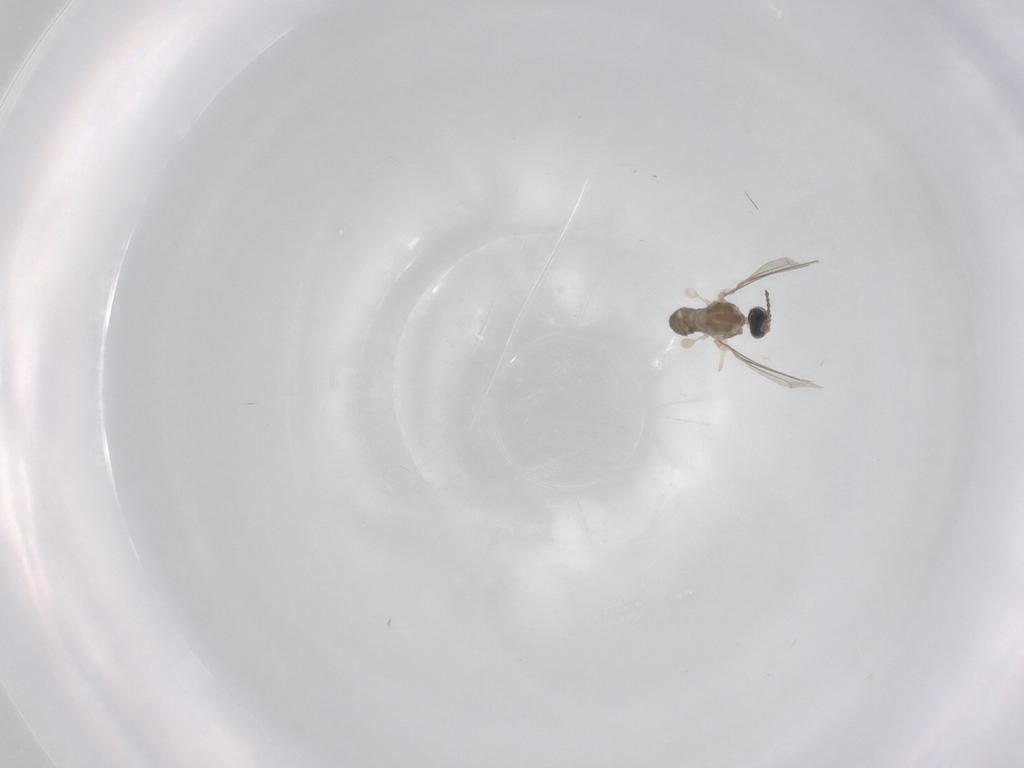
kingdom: Animalia
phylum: Arthropoda
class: Insecta
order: Diptera
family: Cecidomyiidae
